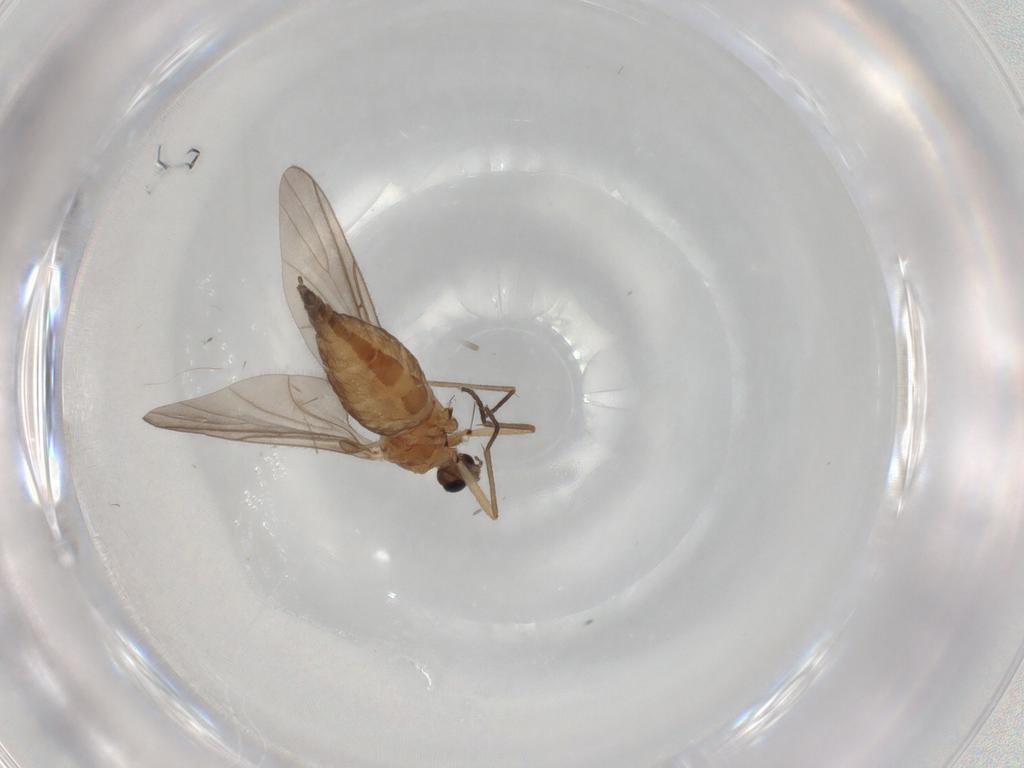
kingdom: Animalia
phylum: Arthropoda
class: Insecta
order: Diptera
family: Sciaridae
